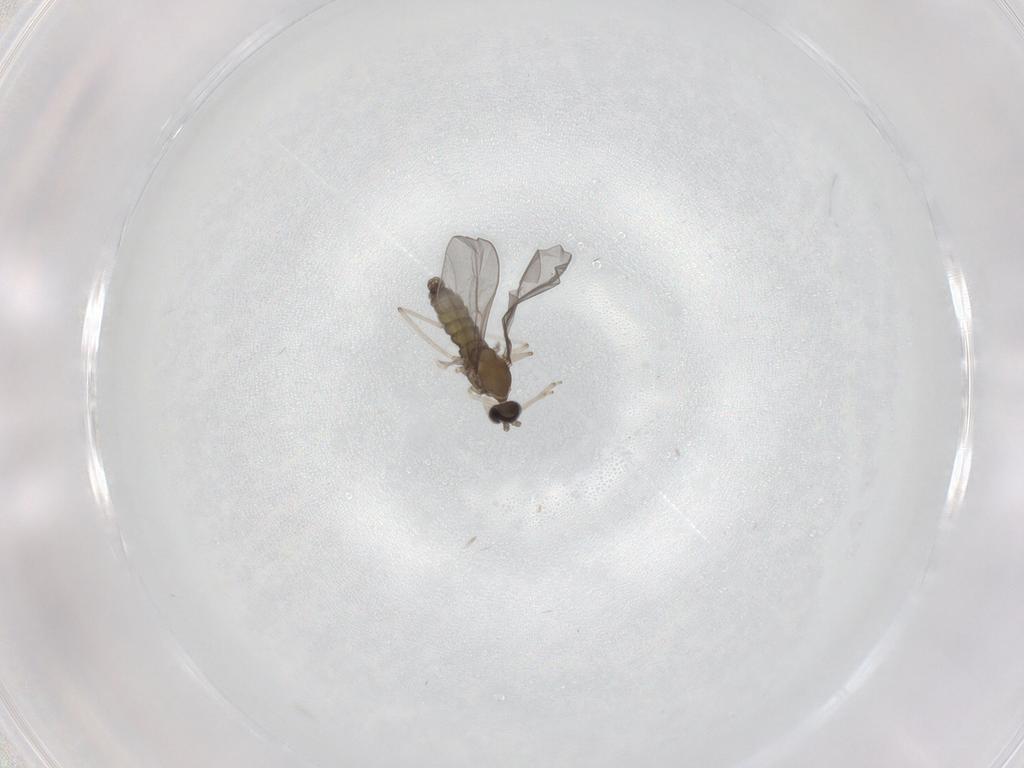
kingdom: Animalia
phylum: Arthropoda
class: Insecta
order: Diptera
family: Cecidomyiidae
